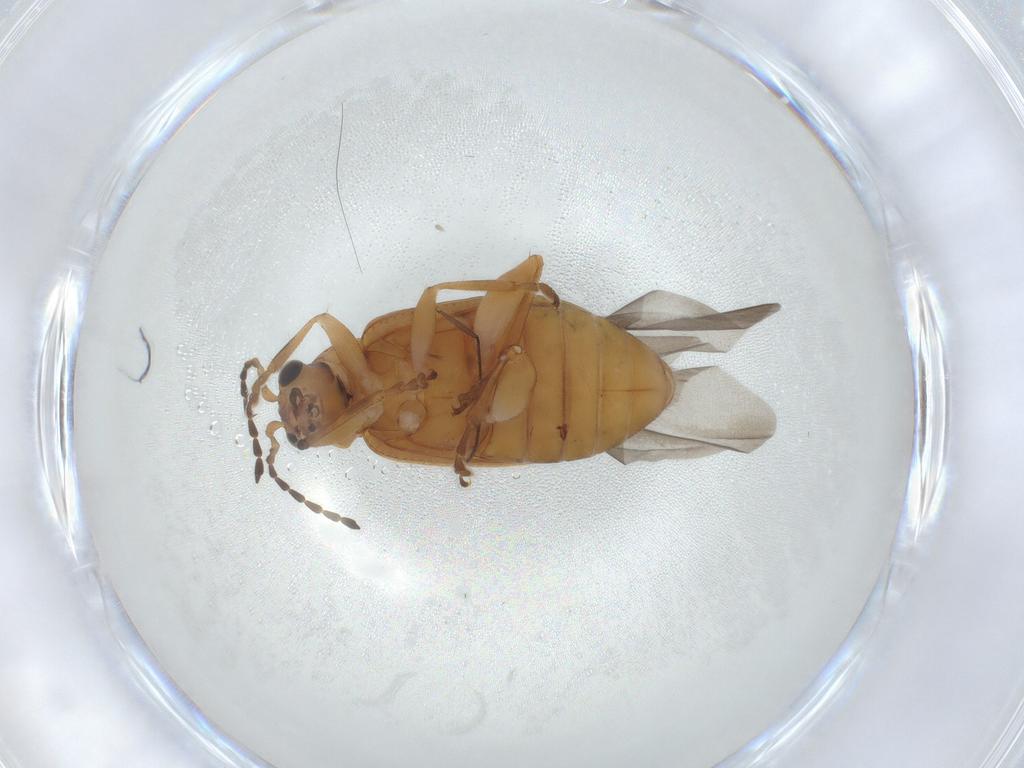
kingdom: Animalia
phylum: Arthropoda
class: Insecta
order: Coleoptera
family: Chrysomelidae
